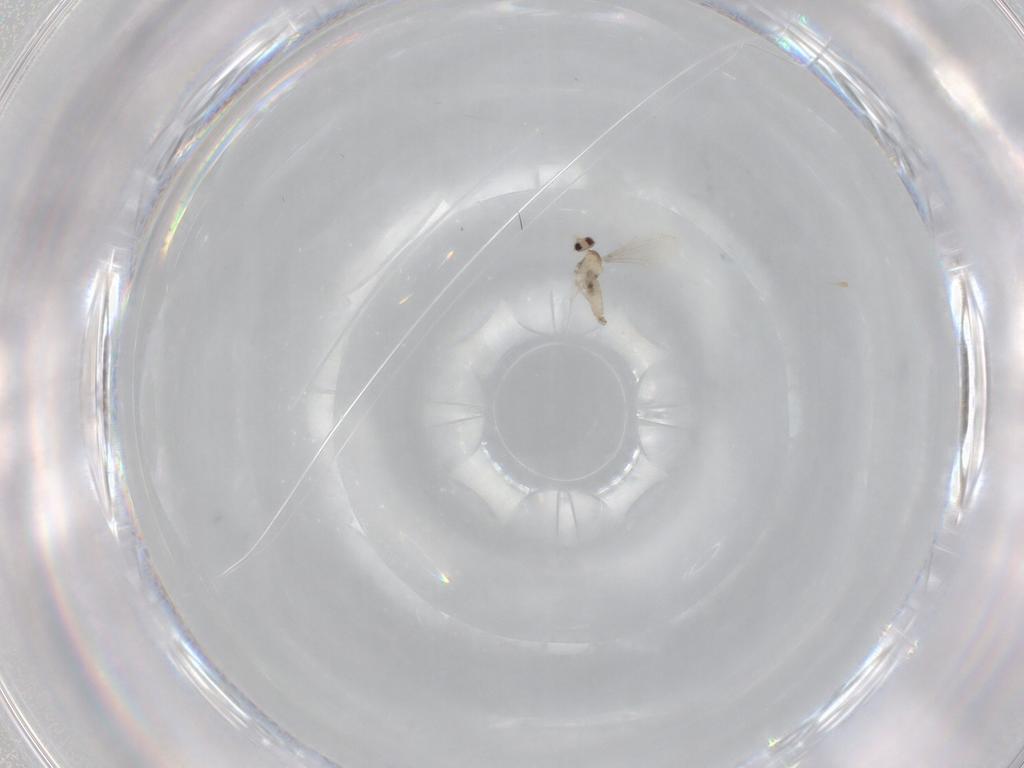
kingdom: Animalia
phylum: Arthropoda
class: Insecta
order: Diptera
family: Cecidomyiidae
